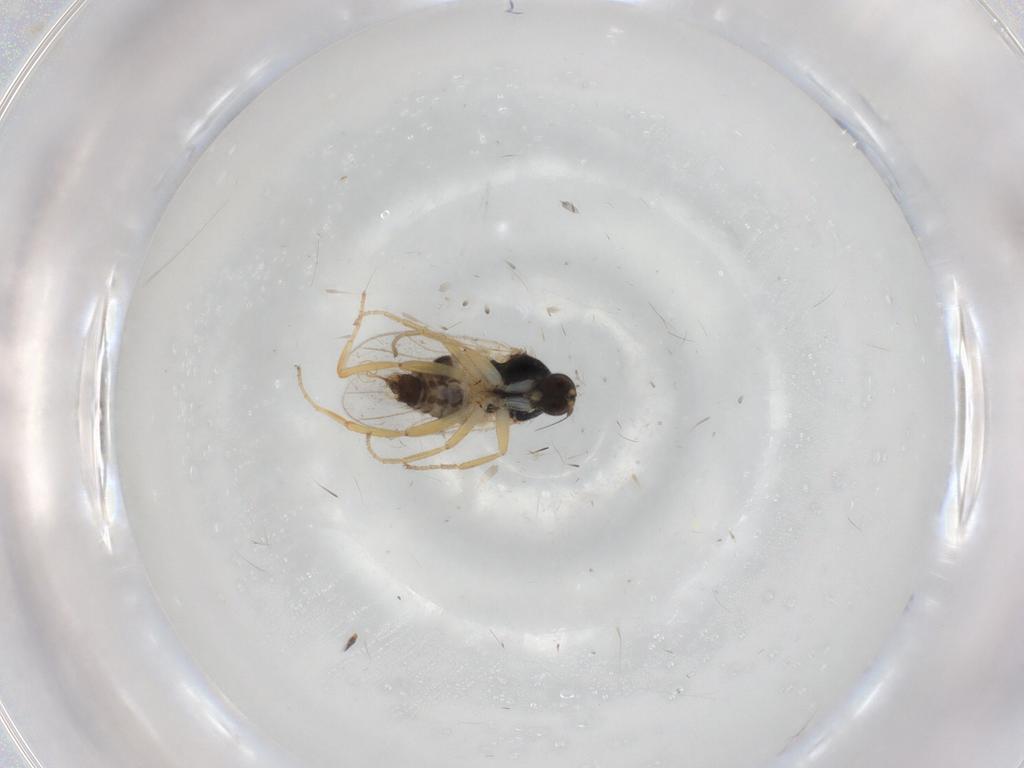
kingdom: Animalia
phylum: Arthropoda
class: Insecta
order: Diptera
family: Hybotidae
